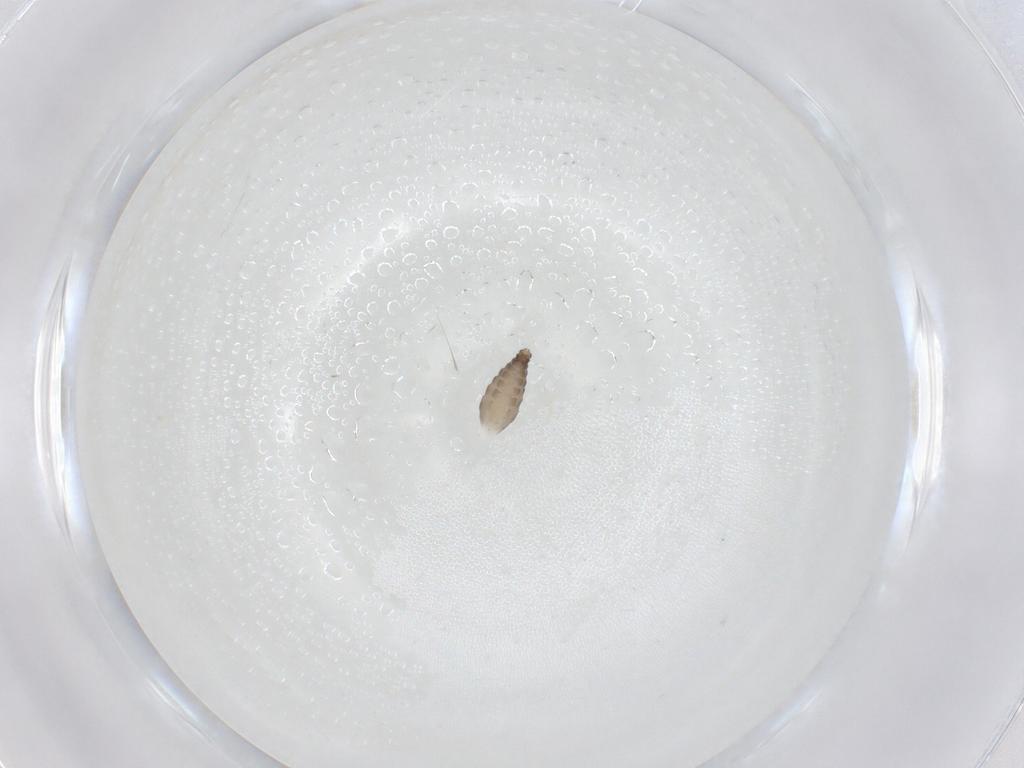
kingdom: Animalia
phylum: Arthropoda
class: Insecta
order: Diptera
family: Ceratopogonidae
